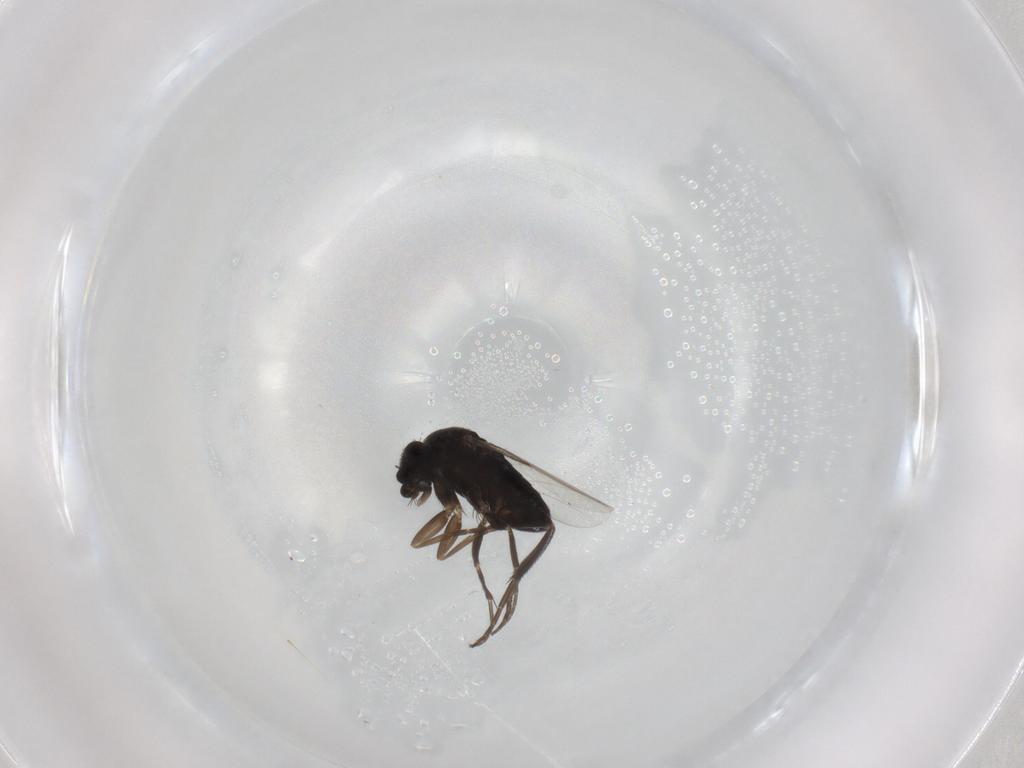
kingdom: Animalia
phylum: Arthropoda
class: Insecta
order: Diptera
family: Phoridae
